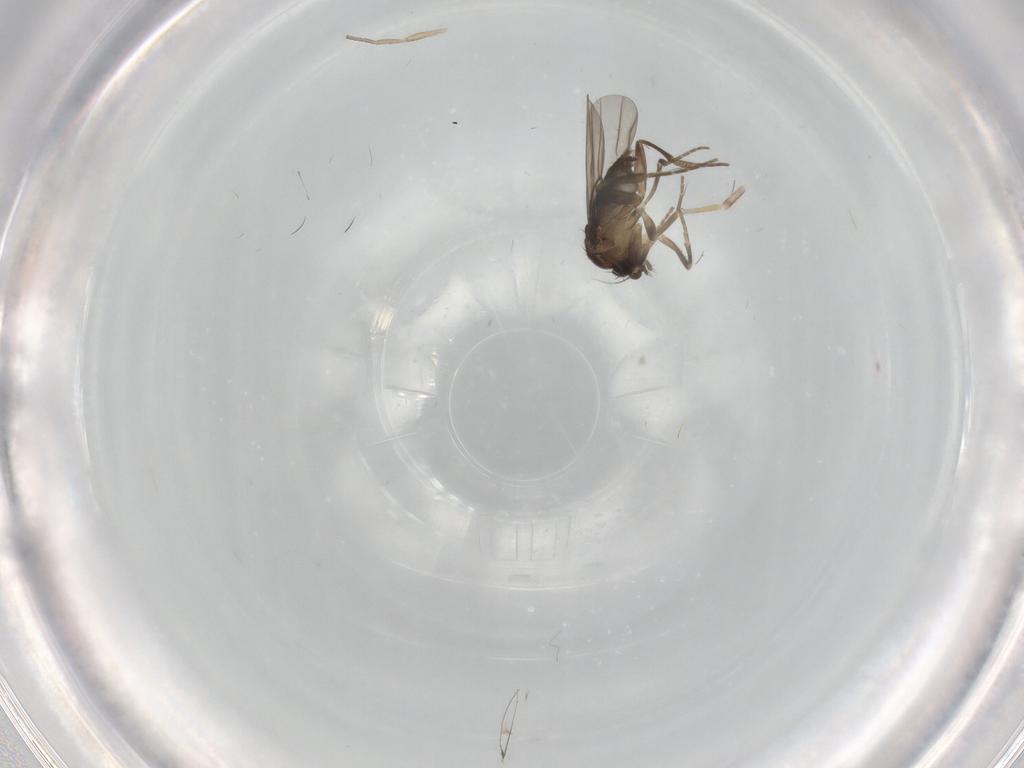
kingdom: Animalia
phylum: Arthropoda
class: Insecta
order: Diptera
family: Phoridae
